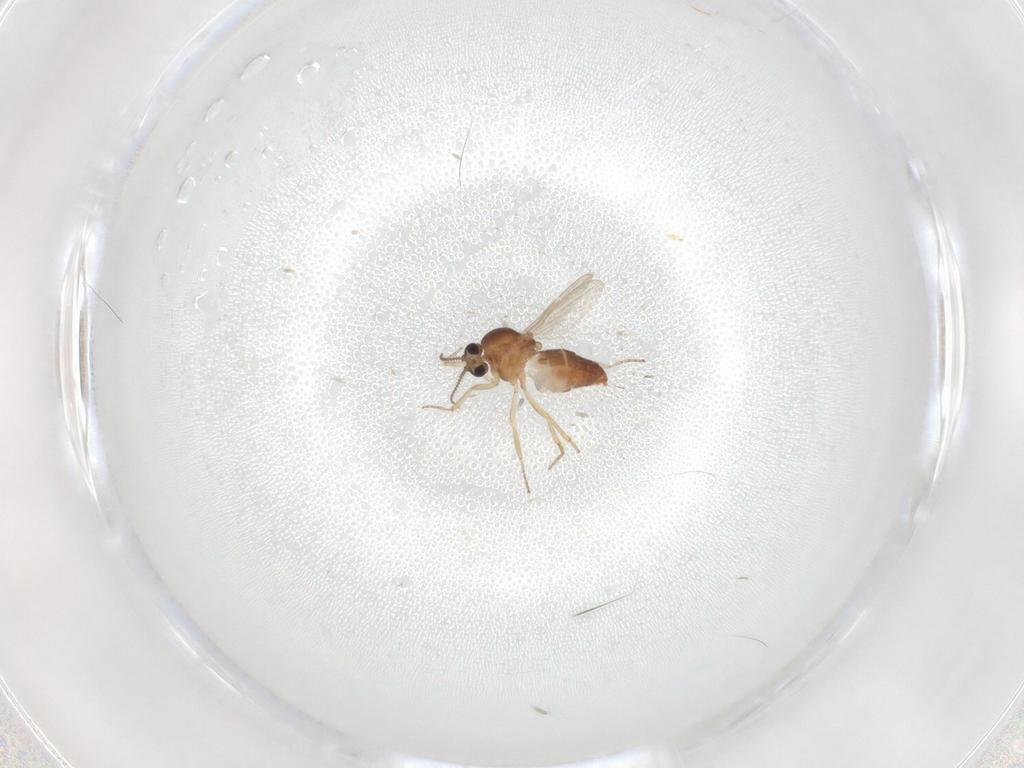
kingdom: Animalia
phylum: Arthropoda
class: Insecta
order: Diptera
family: Ceratopogonidae
